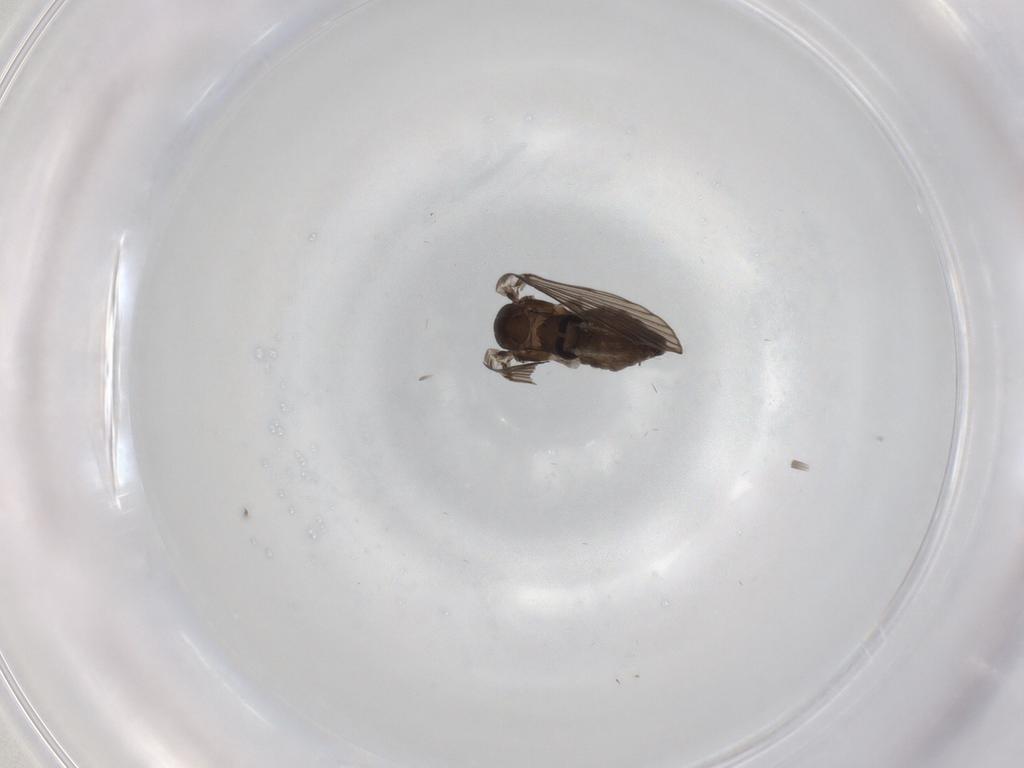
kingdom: Animalia
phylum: Arthropoda
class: Insecta
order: Diptera
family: Psychodidae
